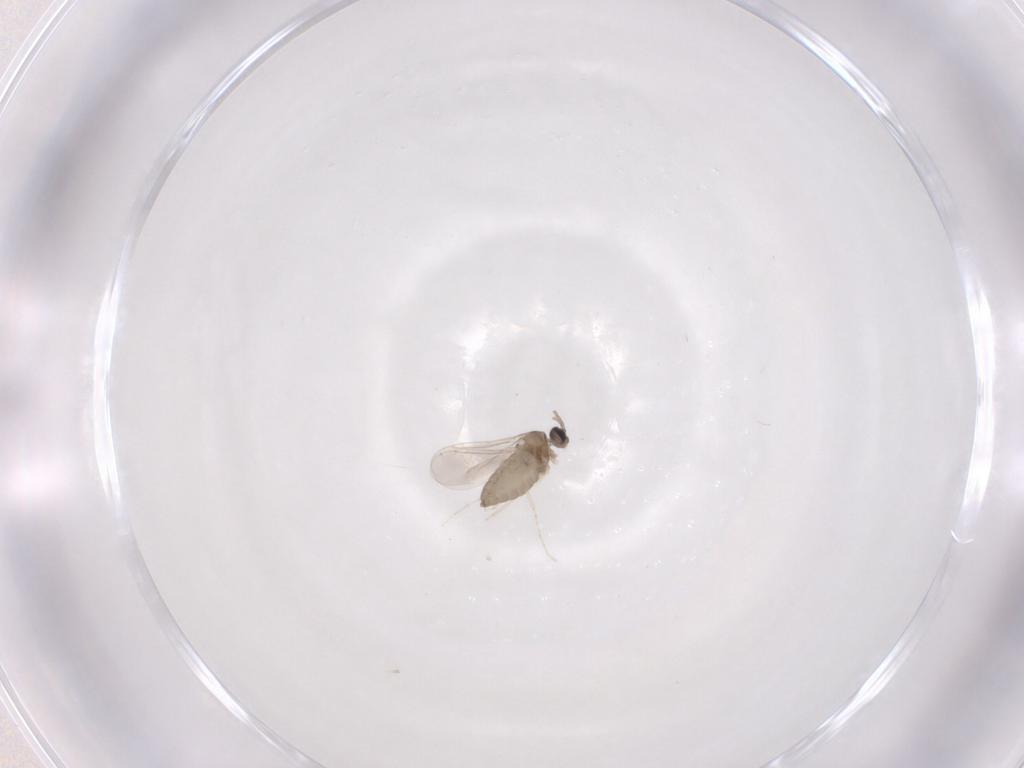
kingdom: Animalia
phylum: Arthropoda
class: Insecta
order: Diptera
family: Cecidomyiidae
